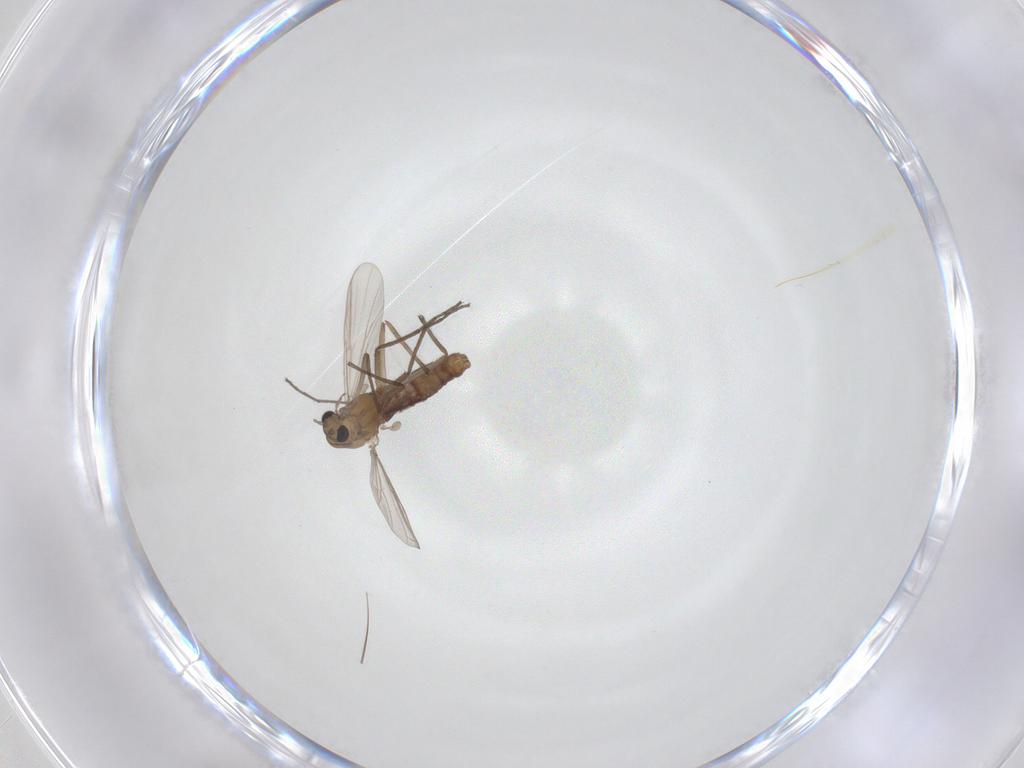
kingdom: Animalia
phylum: Arthropoda
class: Insecta
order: Diptera
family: Chironomidae
